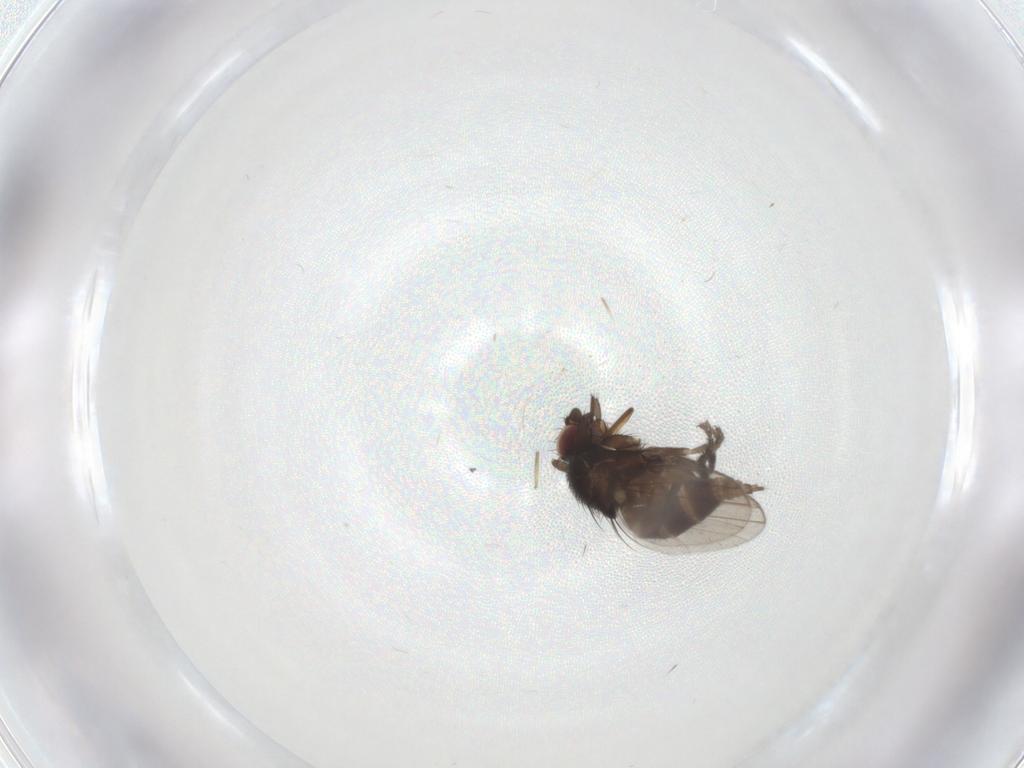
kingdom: Animalia
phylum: Arthropoda
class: Insecta
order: Diptera
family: Milichiidae
